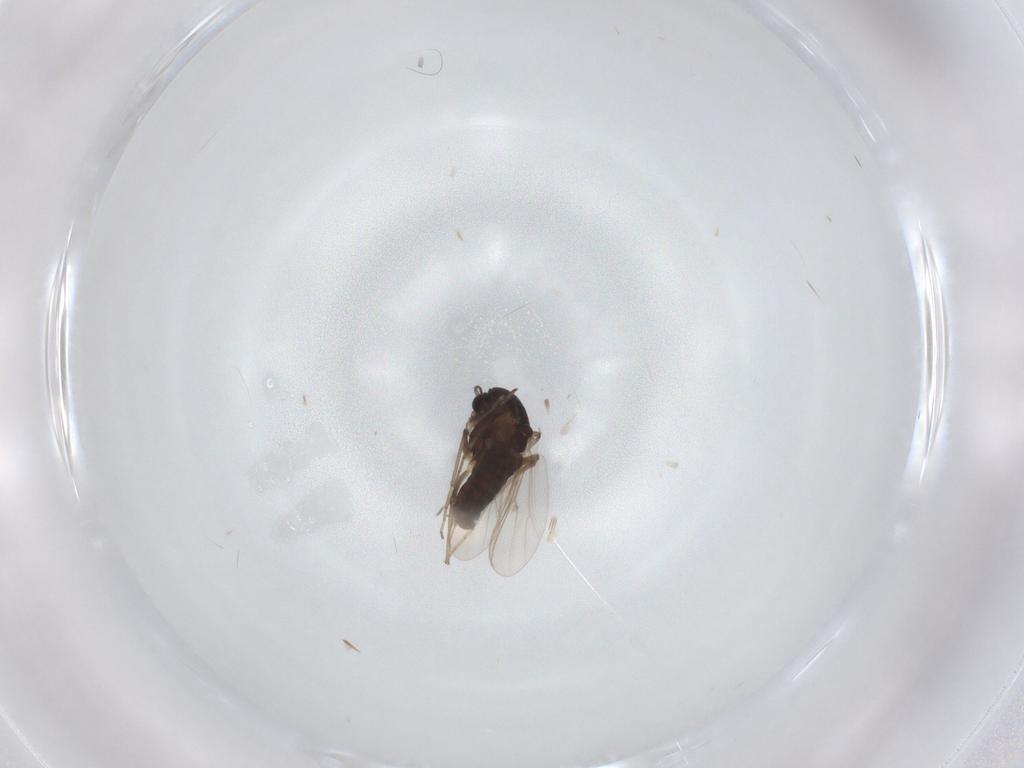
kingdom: Animalia
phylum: Arthropoda
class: Insecta
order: Diptera
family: Chironomidae
